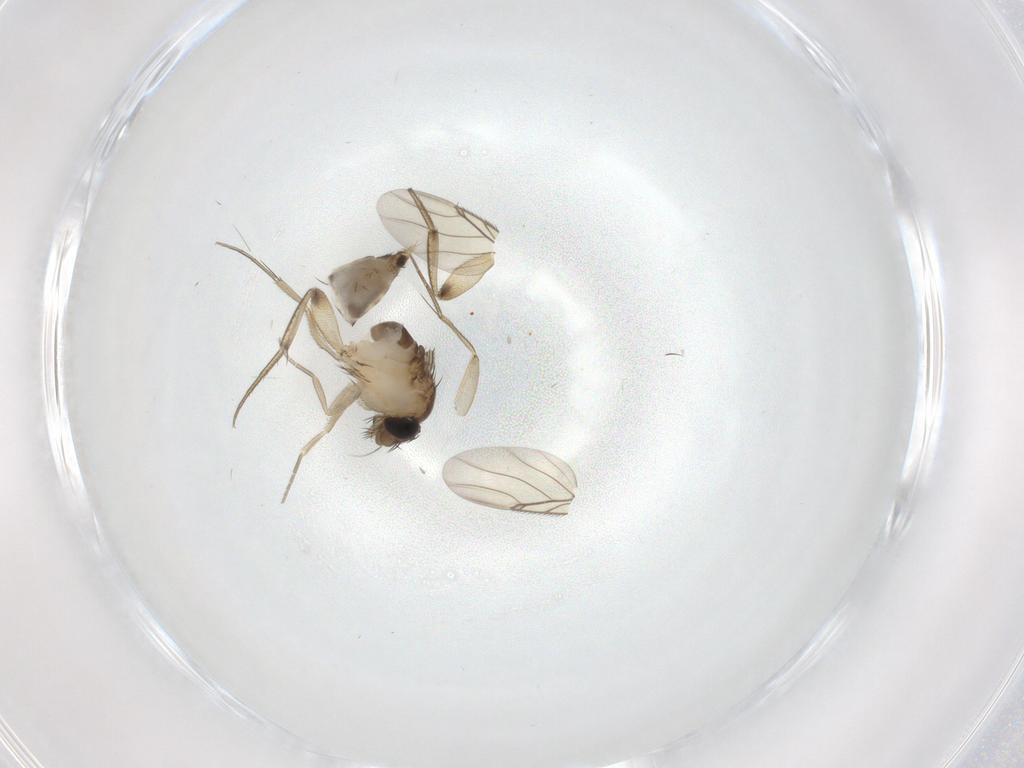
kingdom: Animalia
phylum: Arthropoda
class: Insecta
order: Diptera
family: Phoridae
